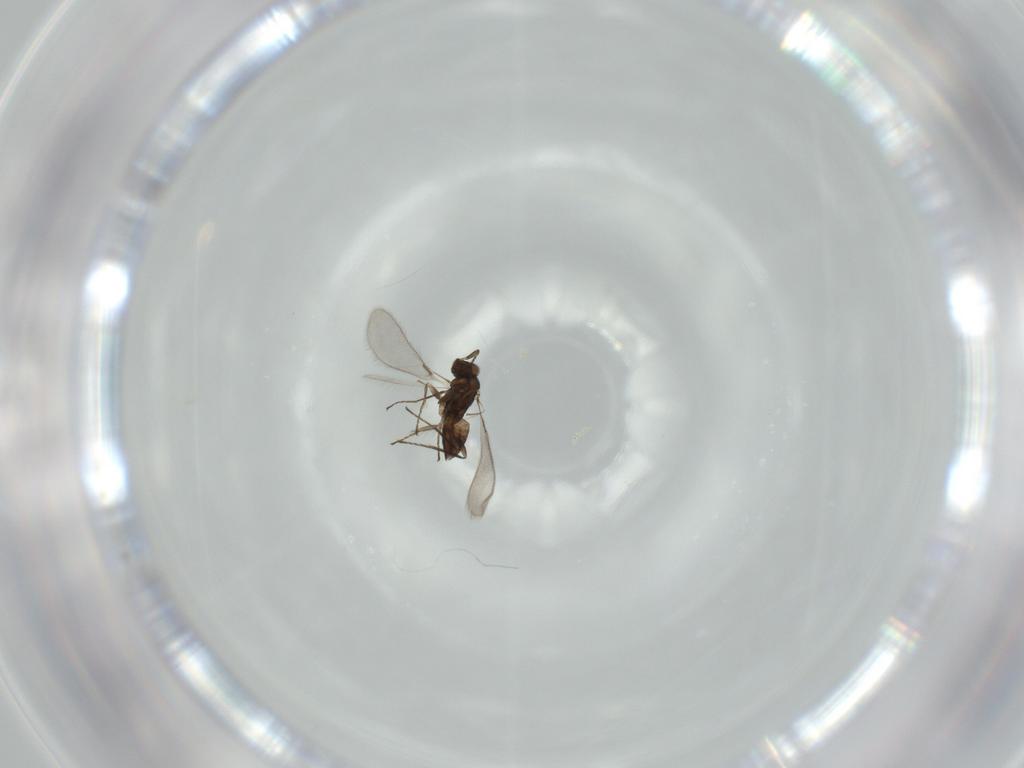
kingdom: Animalia
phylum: Arthropoda
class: Insecta
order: Hymenoptera
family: Mymaridae
